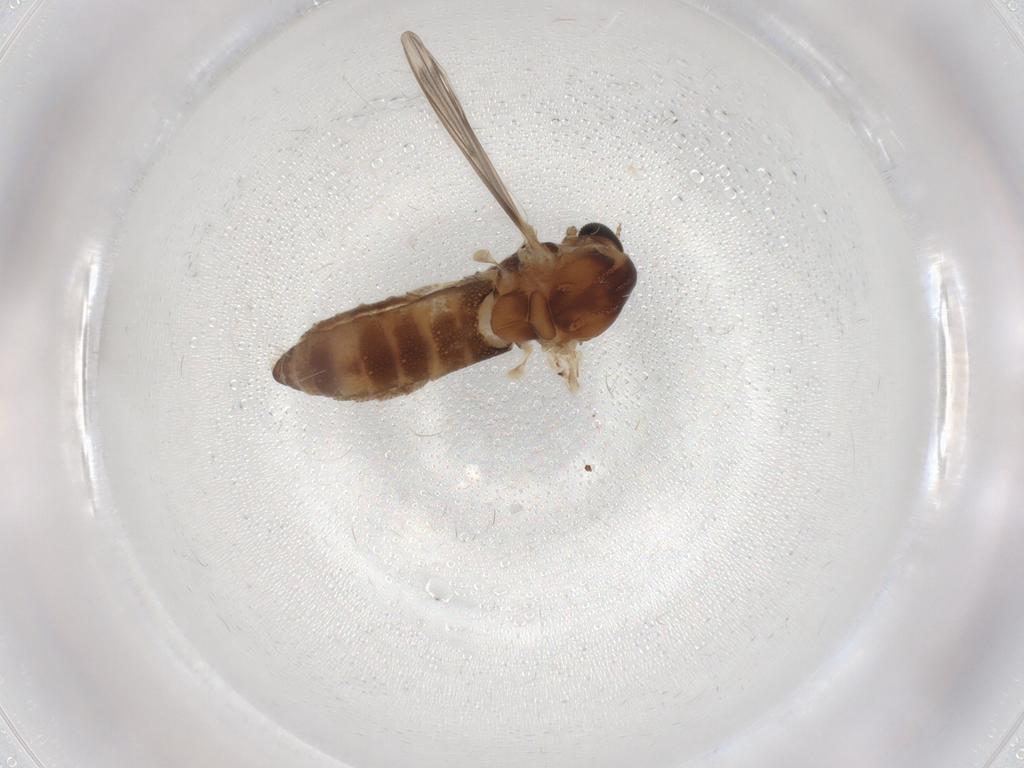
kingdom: Animalia
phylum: Arthropoda
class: Insecta
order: Diptera
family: Chironomidae
